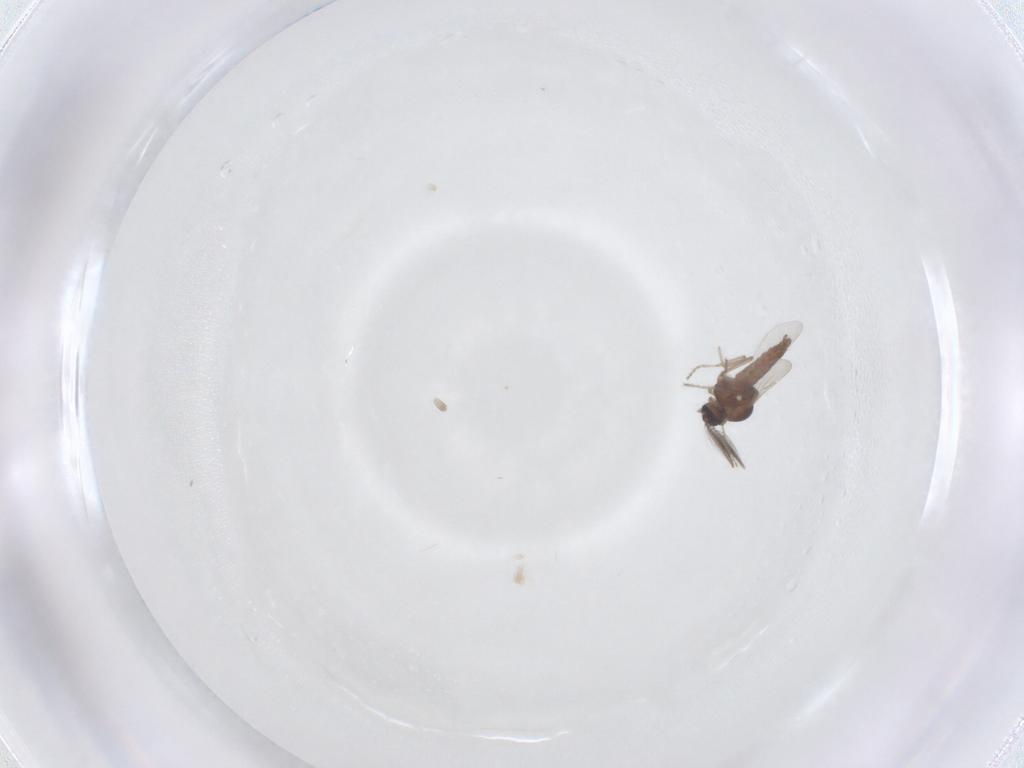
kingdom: Animalia
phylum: Arthropoda
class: Insecta
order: Diptera
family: Ceratopogonidae
